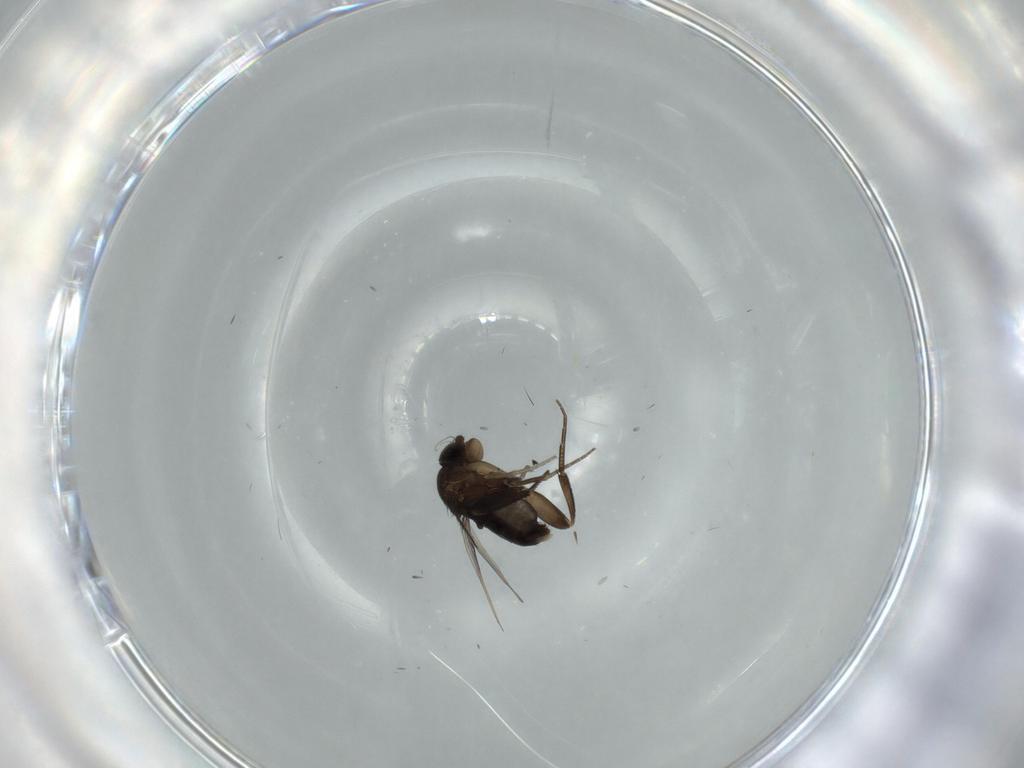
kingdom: Animalia
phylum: Arthropoda
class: Insecta
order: Diptera
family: Phoridae
